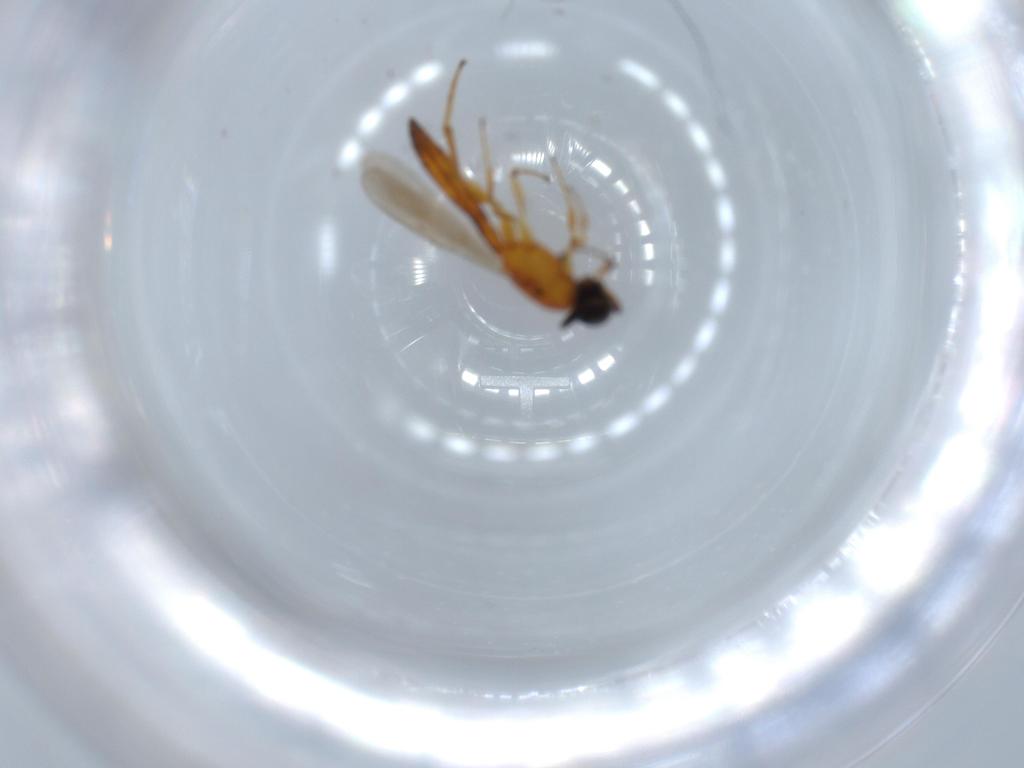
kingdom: Animalia
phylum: Arthropoda
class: Insecta
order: Hymenoptera
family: Scelionidae
